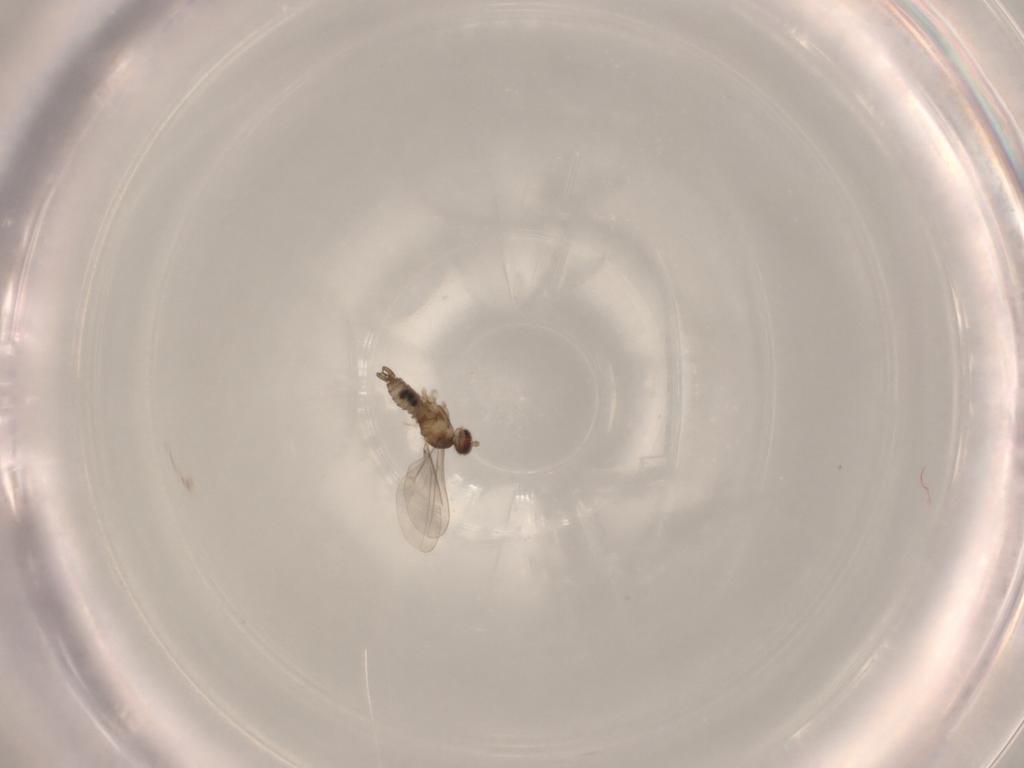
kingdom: Animalia
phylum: Arthropoda
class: Insecta
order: Diptera
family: Cecidomyiidae
